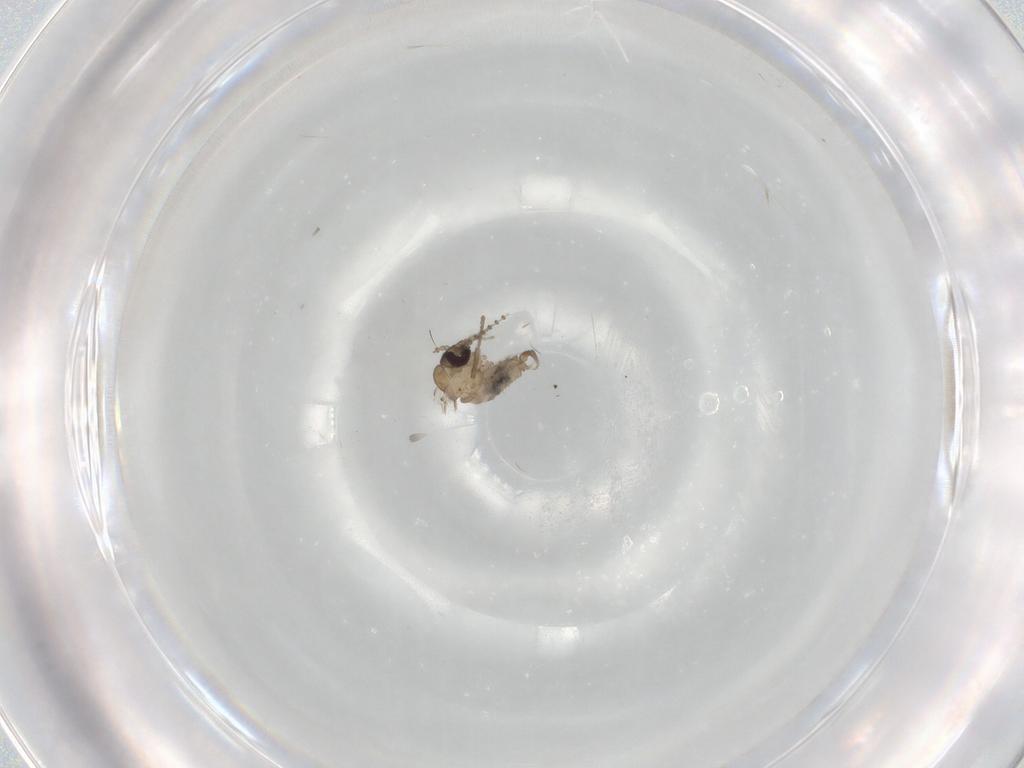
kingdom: Animalia
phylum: Arthropoda
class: Insecta
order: Diptera
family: Psychodidae
